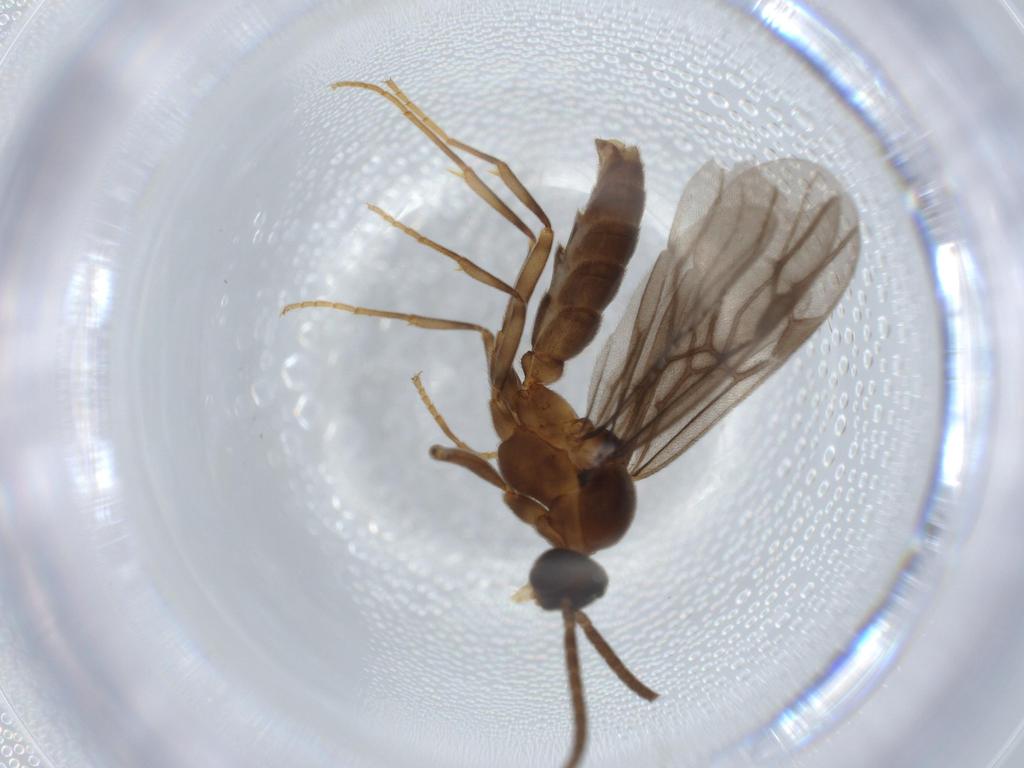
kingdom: Animalia
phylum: Arthropoda
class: Insecta
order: Hymenoptera
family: Formicidae
